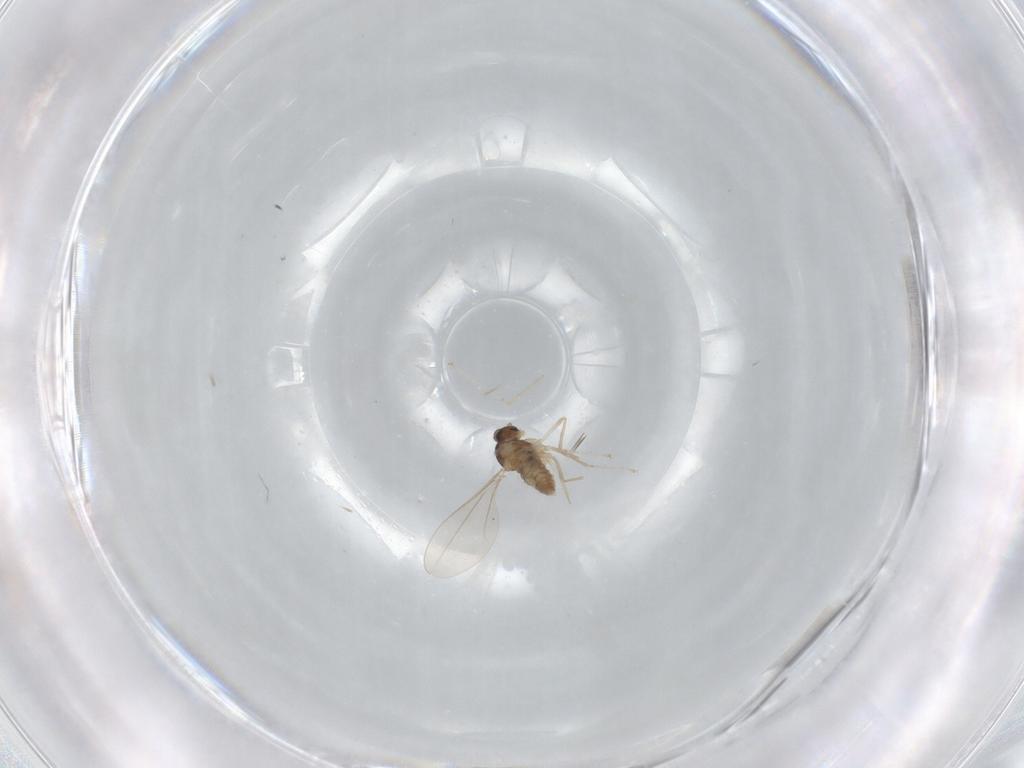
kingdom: Animalia
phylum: Arthropoda
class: Insecta
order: Diptera
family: Cecidomyiidae
